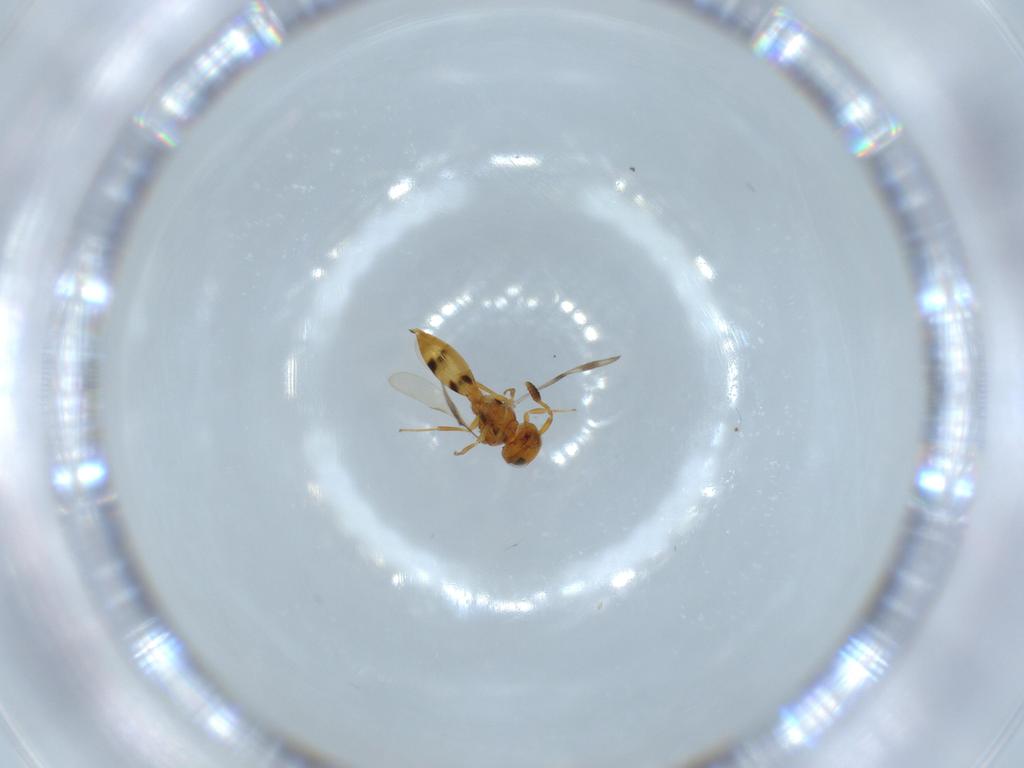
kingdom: Animalia
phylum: Arthropoda
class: Insecta
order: Hymenoptera
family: Scelionidae
